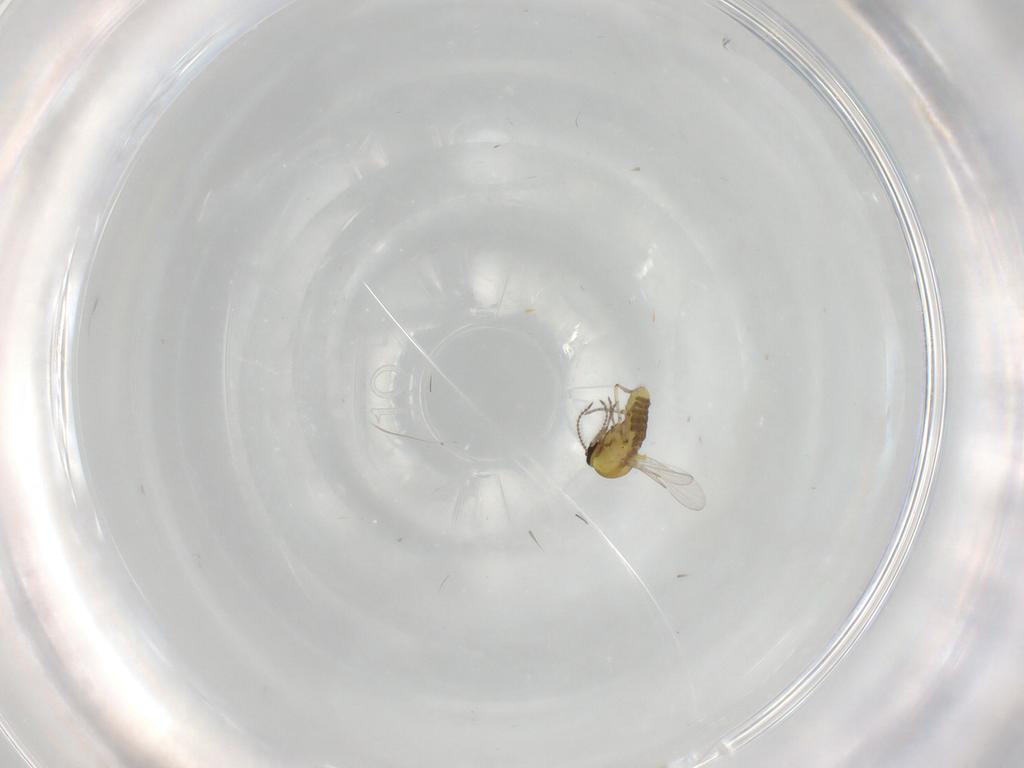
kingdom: Animalia
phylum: Arthropoda
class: Insecta
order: Diptera
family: Ceratopogonidae
